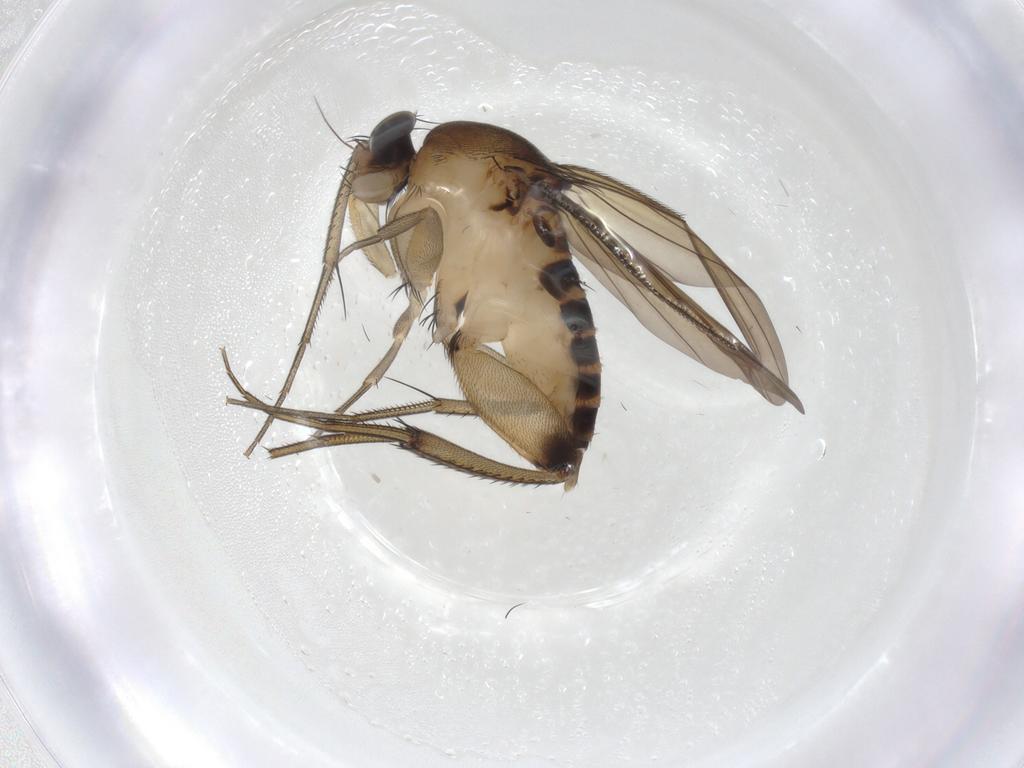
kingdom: Animalia
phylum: Arthropoda
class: Insecta
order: Diptera
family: Phoridae
